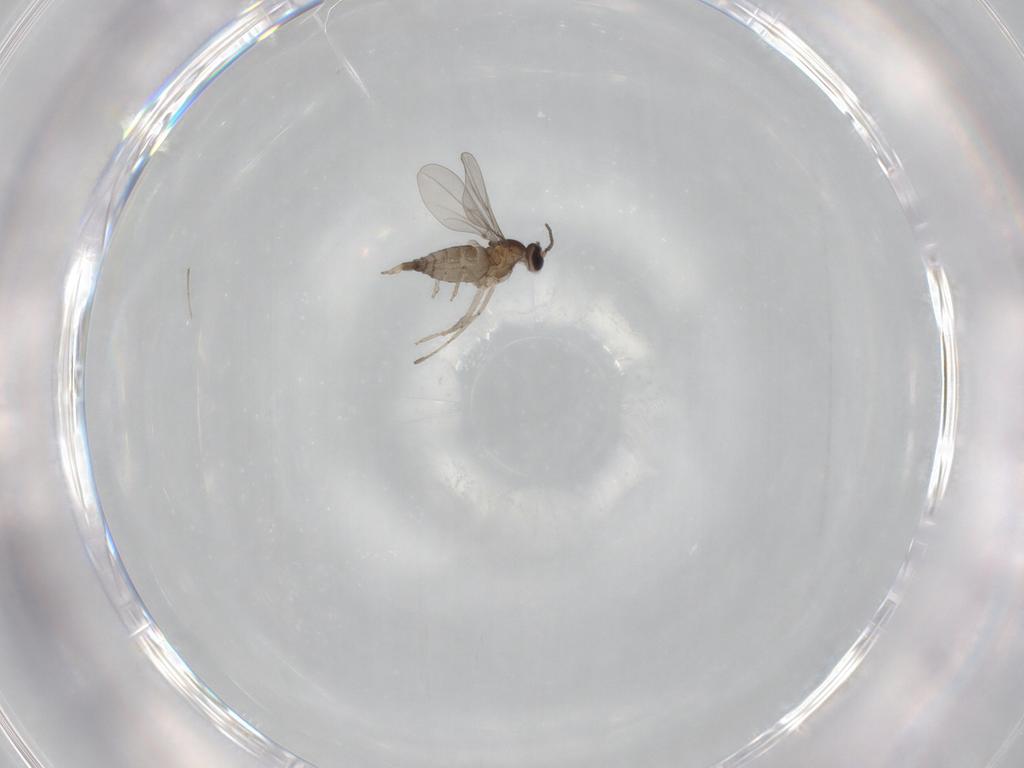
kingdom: Animalia
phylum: Arthropoda
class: Insecta
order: Diptera
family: Cecidomyiidae
